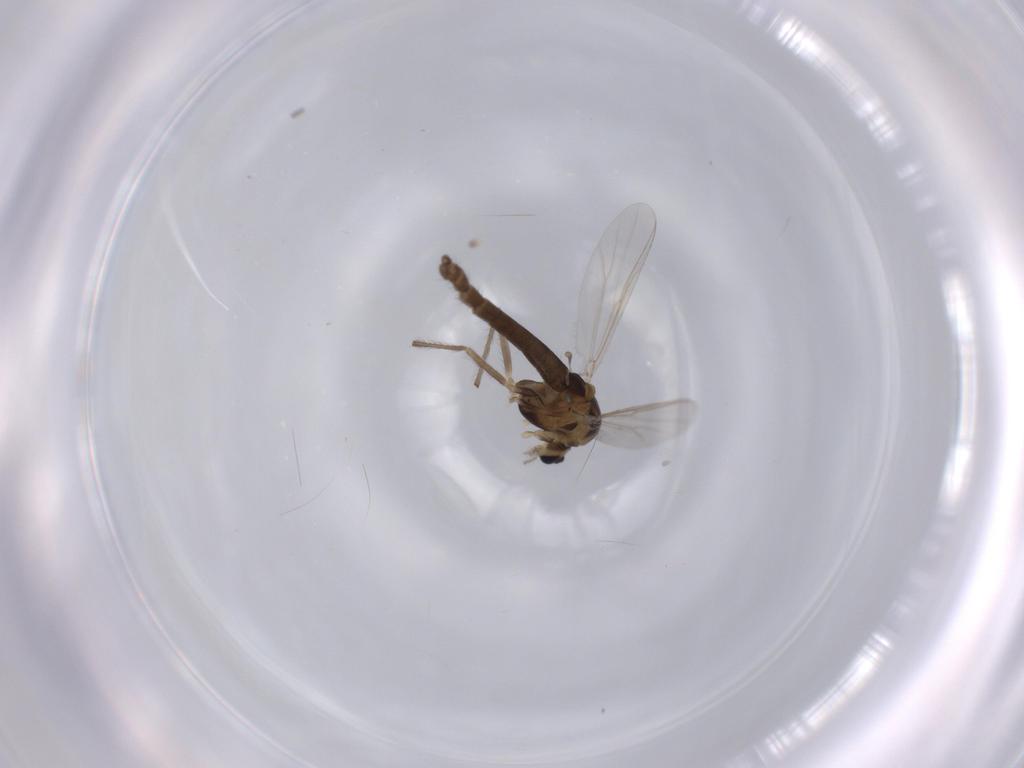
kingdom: Animalia
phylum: Arthropoda
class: Insecta
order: Diptera
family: Chironomidae
